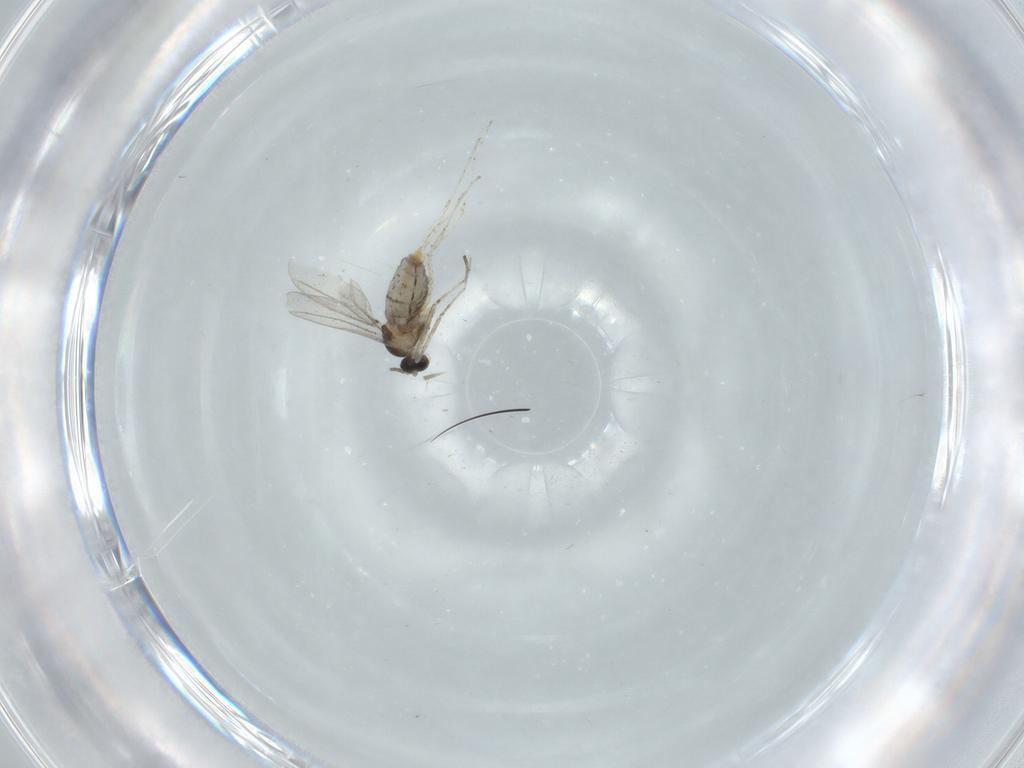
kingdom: Animalia
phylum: Arthropoda
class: Insecta
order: Diptera
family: Cecidomyiidae
